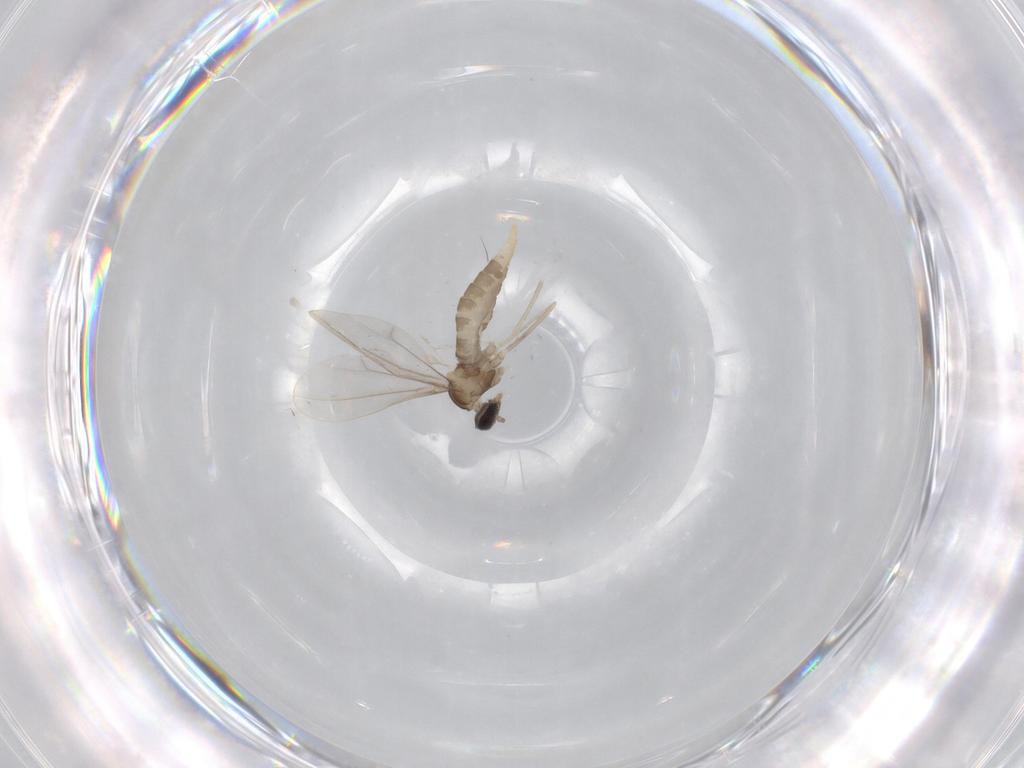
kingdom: Animalia
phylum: Arthropoda
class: Insecta
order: Diptera
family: Cecidomyiidae
